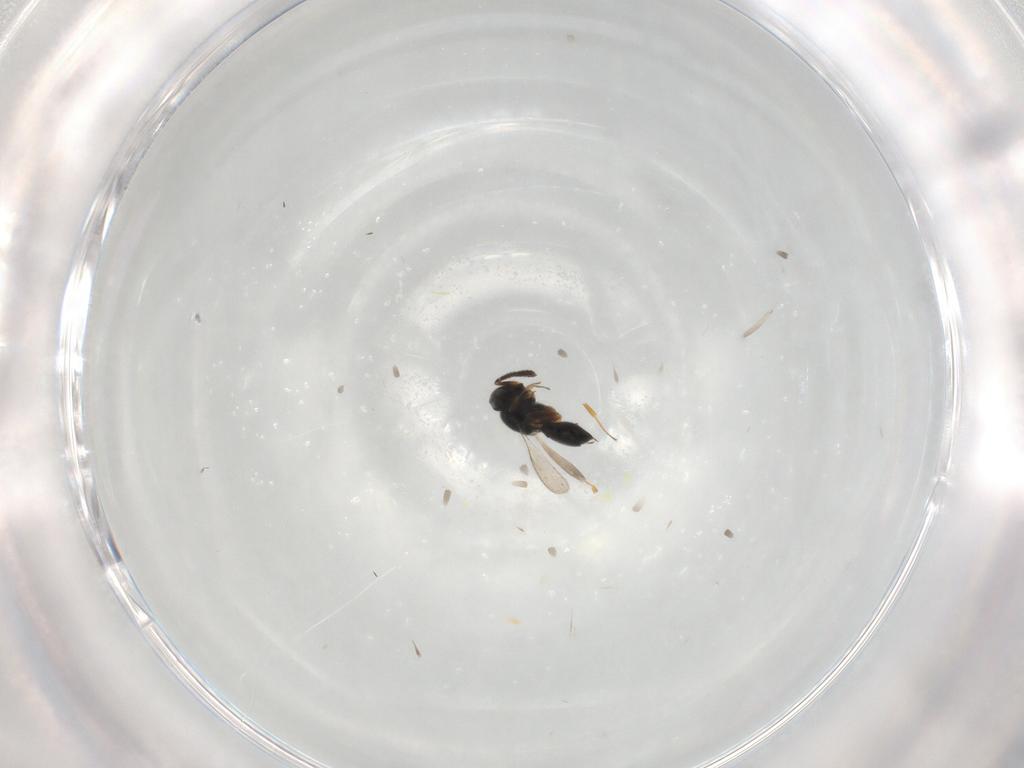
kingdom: Animalia
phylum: Arthropoda
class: Insecta
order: Hymenoptera
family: Scelionidae
